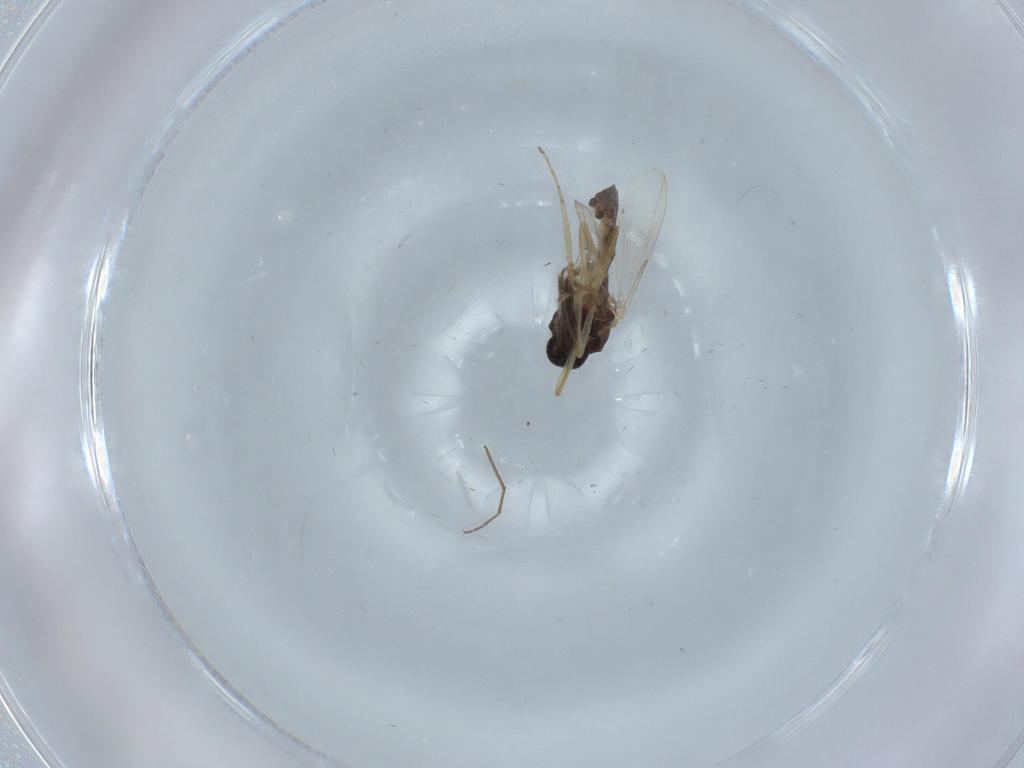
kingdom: Animalia
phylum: Arthropoda
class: Insecta
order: Diptera
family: Ceratopogonidae
